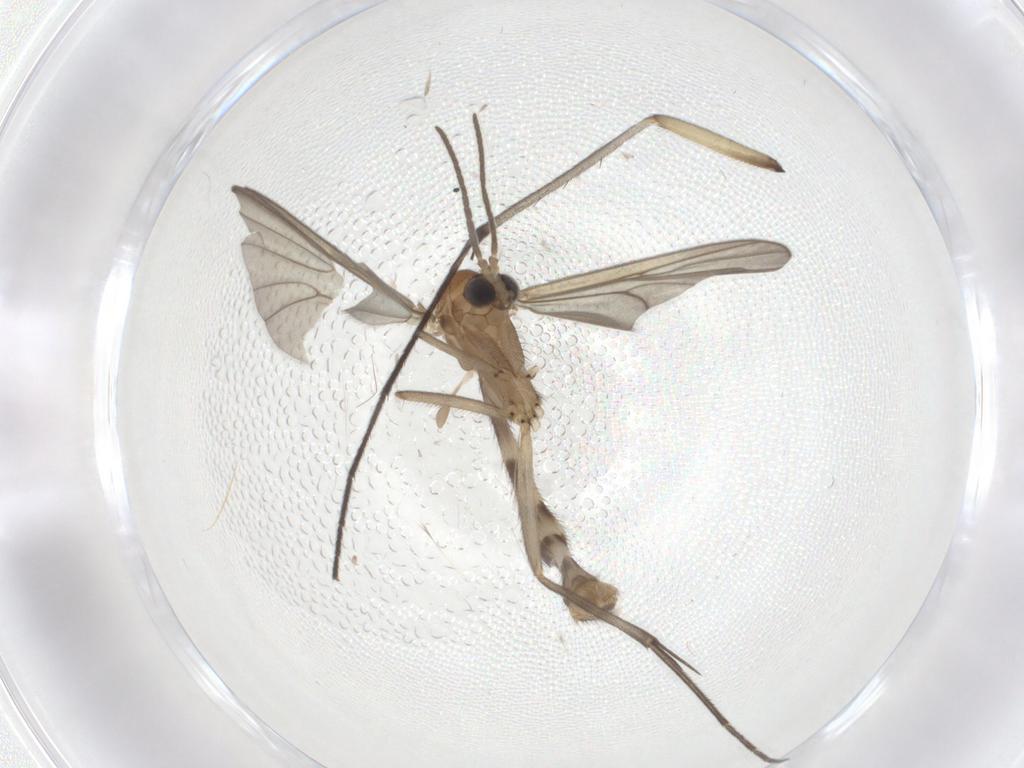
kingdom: Animalia
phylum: Arthropoda
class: Insecta
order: Diptera
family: Mycetophilidae
